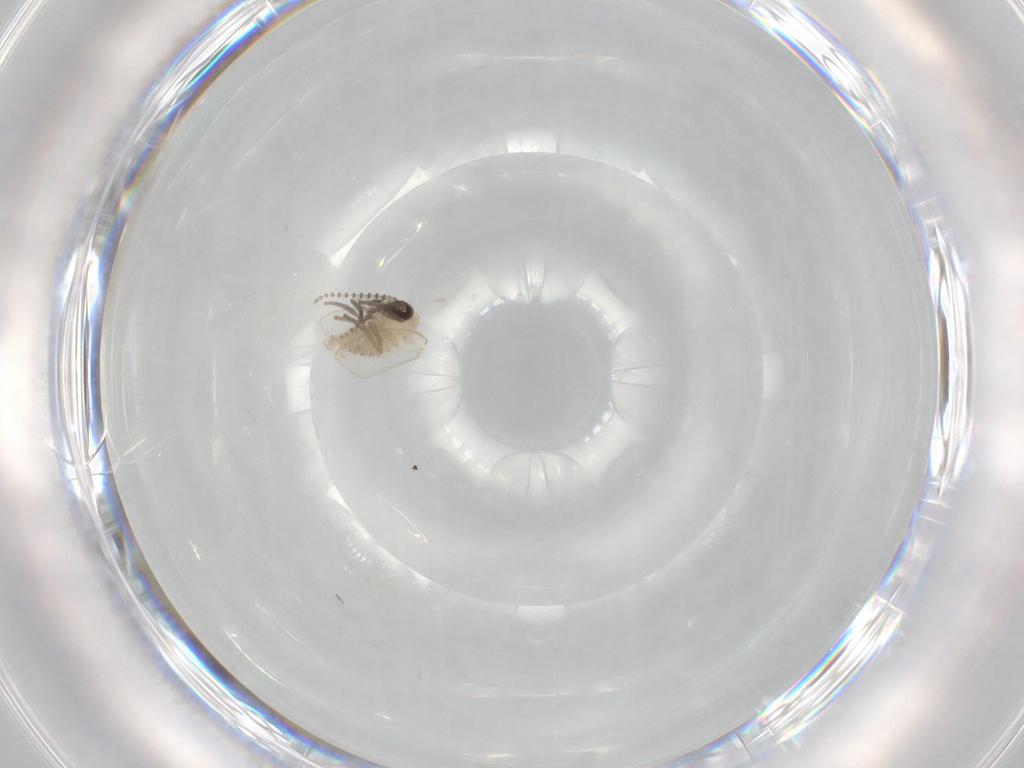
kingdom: Animalia
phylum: Arthropoda
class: Insecta
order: Diptera
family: Psychodidae
